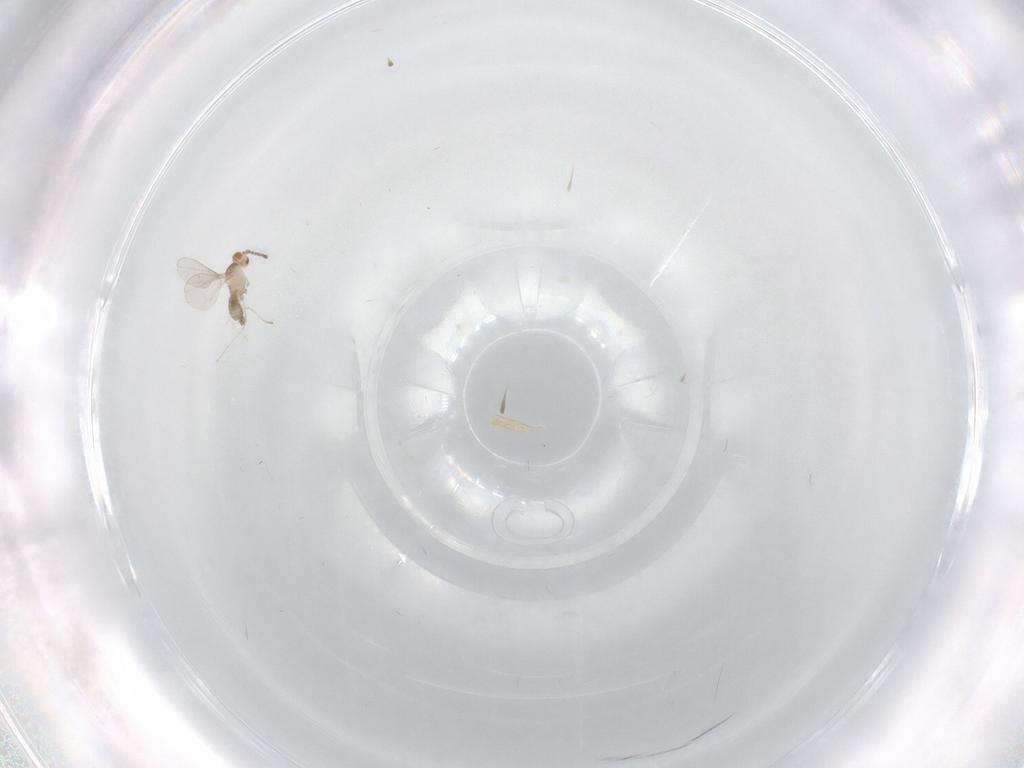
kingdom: Animalia
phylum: Arthropoda
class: Insecta
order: Diptera
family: Cecidomyiidae
